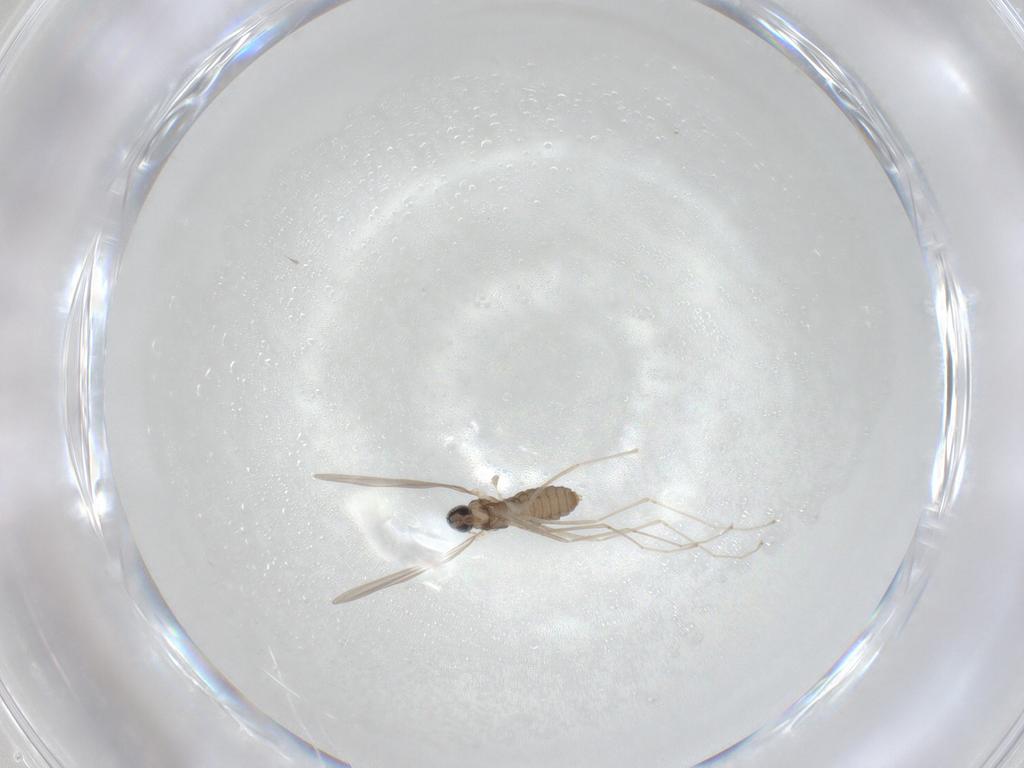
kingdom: Animalia
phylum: Arthropoda
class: Insecta
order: Diptera
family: Cecidomyiidae
